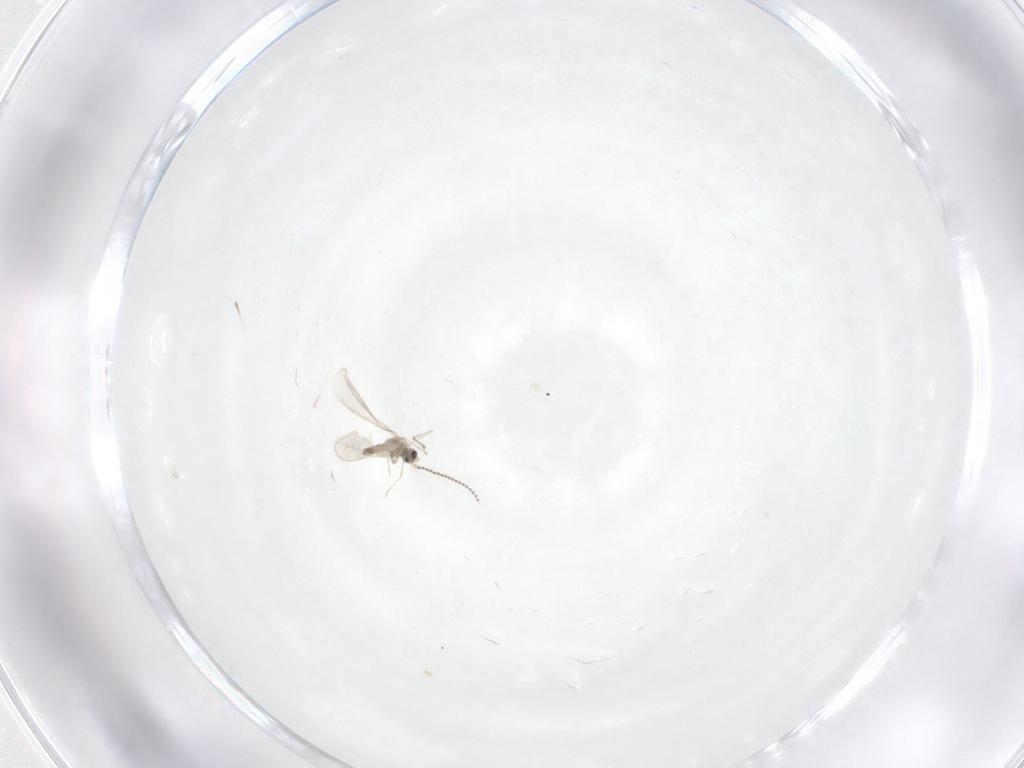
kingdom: Animalia
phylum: Arthropoda
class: Insecta
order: Diptera
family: Cecidomyiidae
